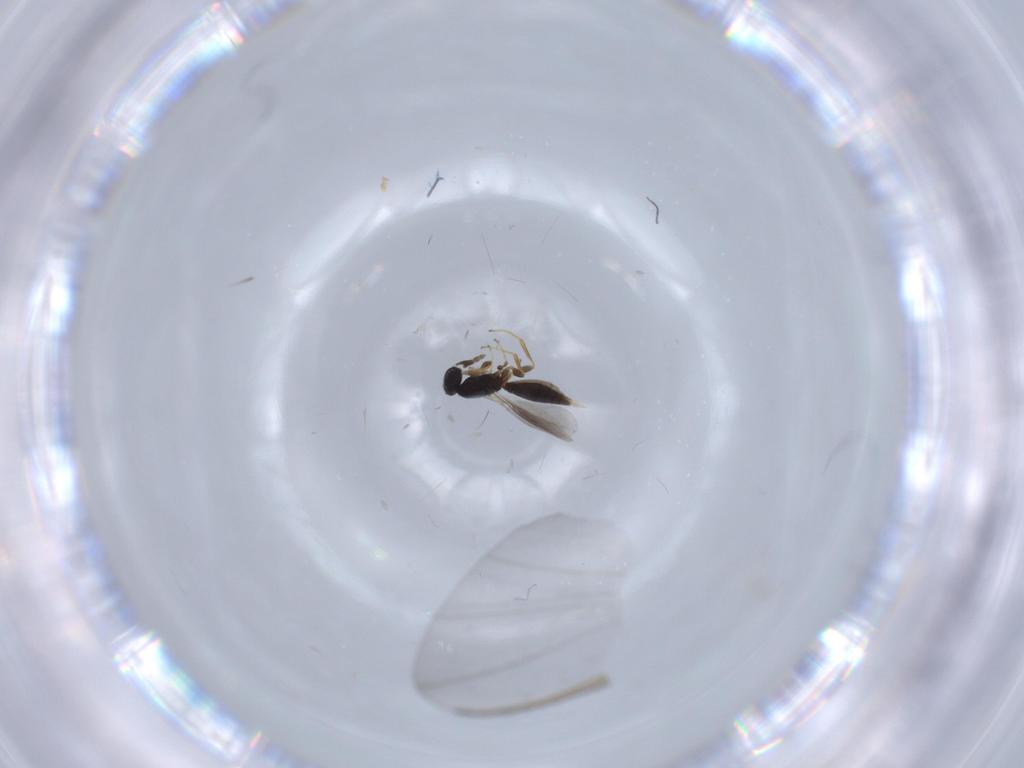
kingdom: Animalia
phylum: Arthropoda
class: Insecta
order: Hymenoptera
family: Platygastridae
